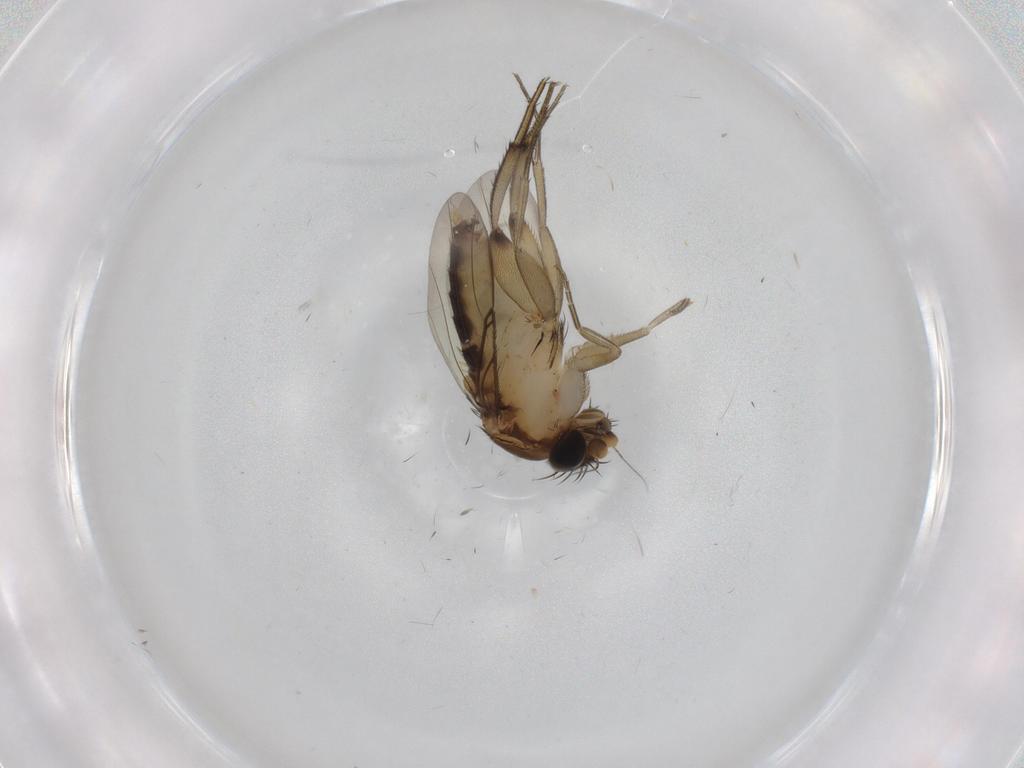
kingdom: Animalia
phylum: Arthropoda
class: Insecta
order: Diptera
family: Phoridae
